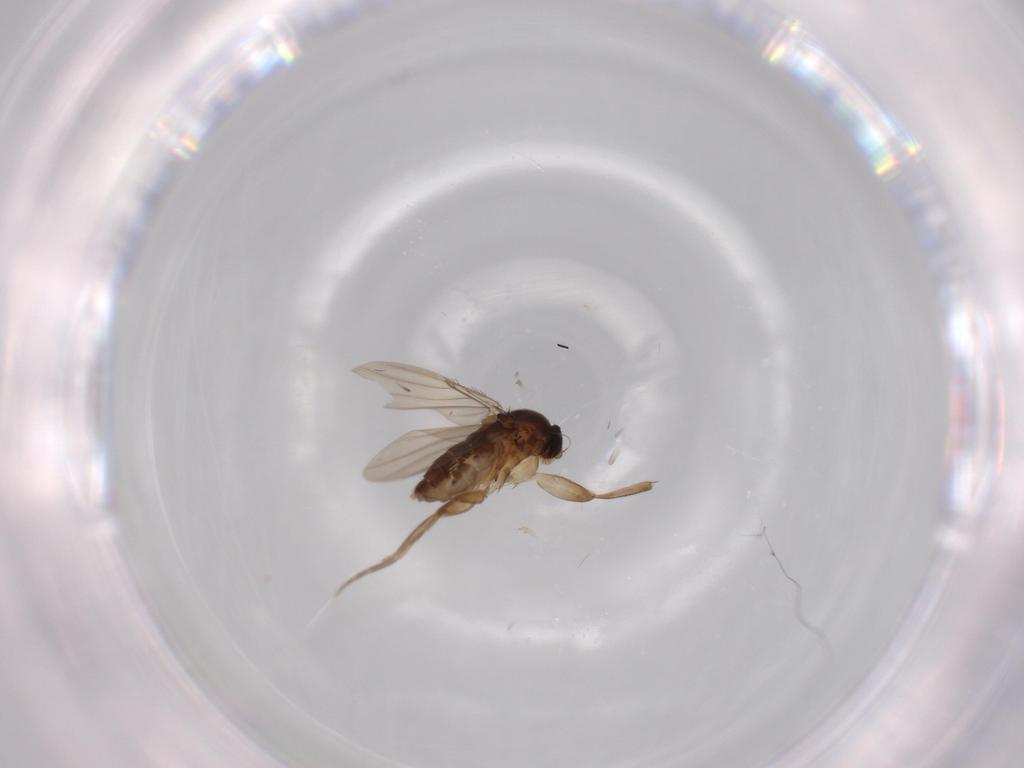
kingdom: Animalia
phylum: Arthropoda
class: Insecta
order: Diptera
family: Phoridae
